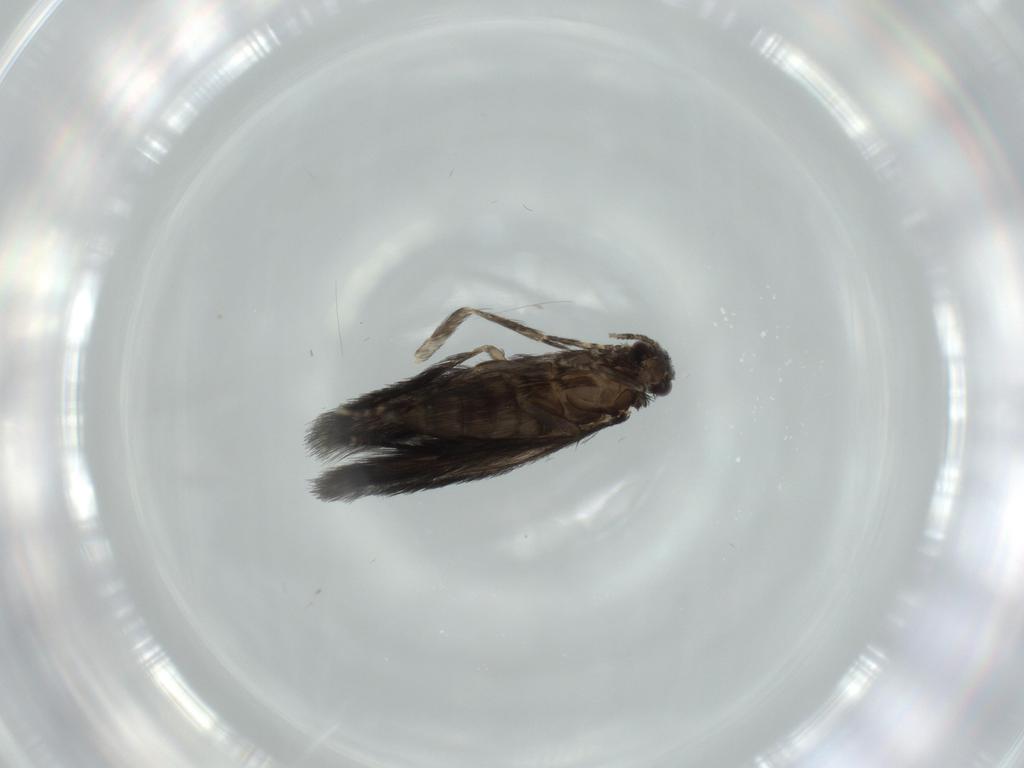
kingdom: Animalia
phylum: Arthropoda
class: Insecta
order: Trichoptera
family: Hydroptilidae
